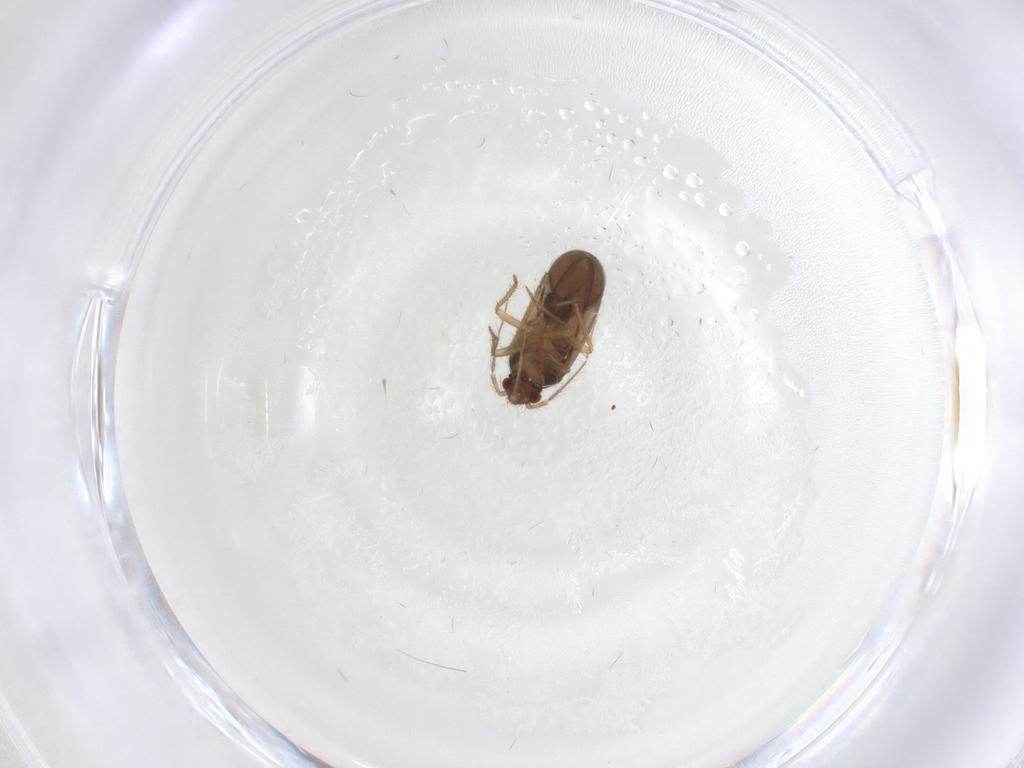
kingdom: Animalia
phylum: Arthropoda
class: Insecta
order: Hemiptera
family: Ceratocombidae
